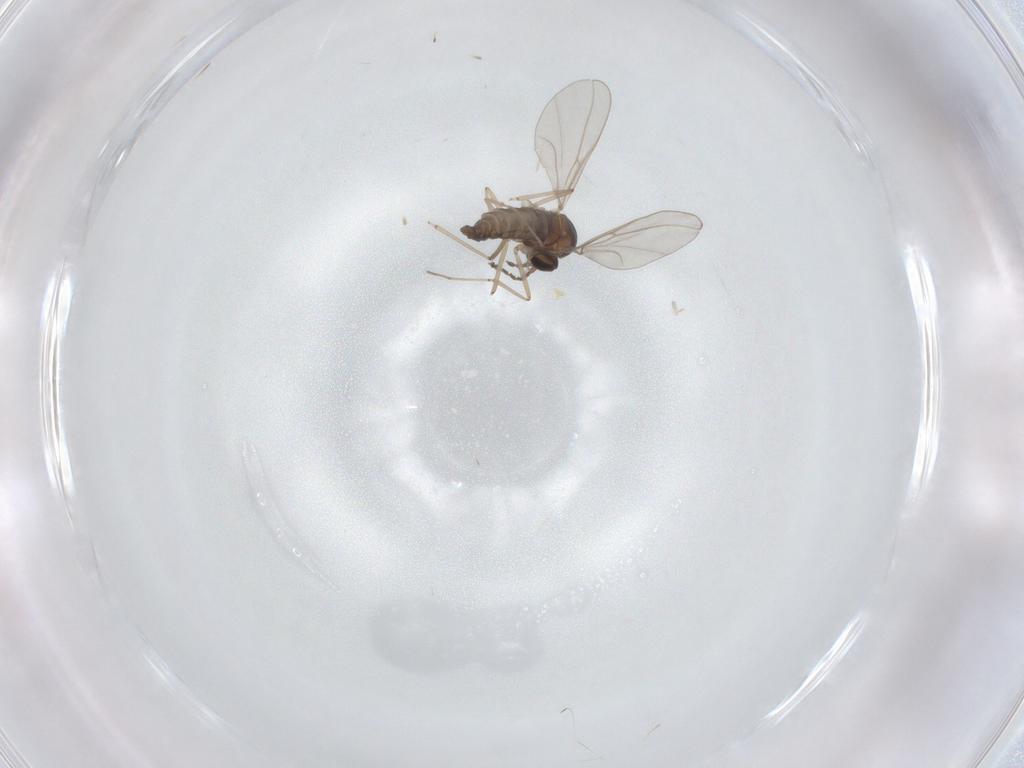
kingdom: Animalia
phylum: Arthropoda
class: Insecta
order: Diptera
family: Cecidomyiidae
